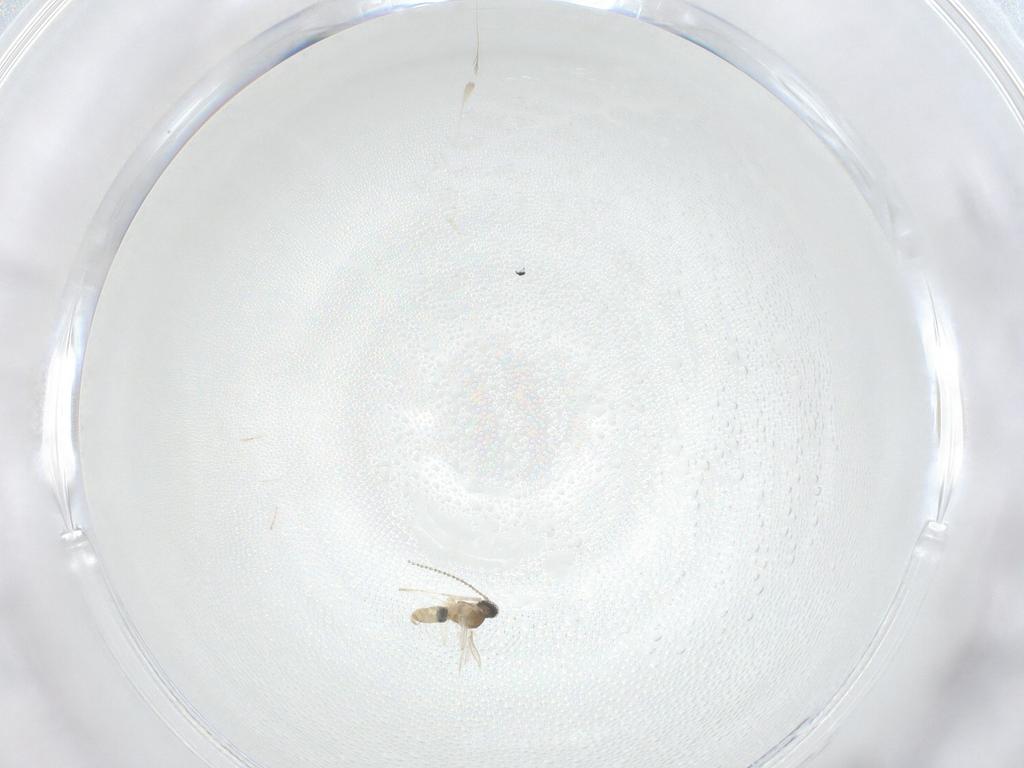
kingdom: Animalia
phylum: Arthropoda
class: Insecta
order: Diptera
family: Cecidomyiidae
